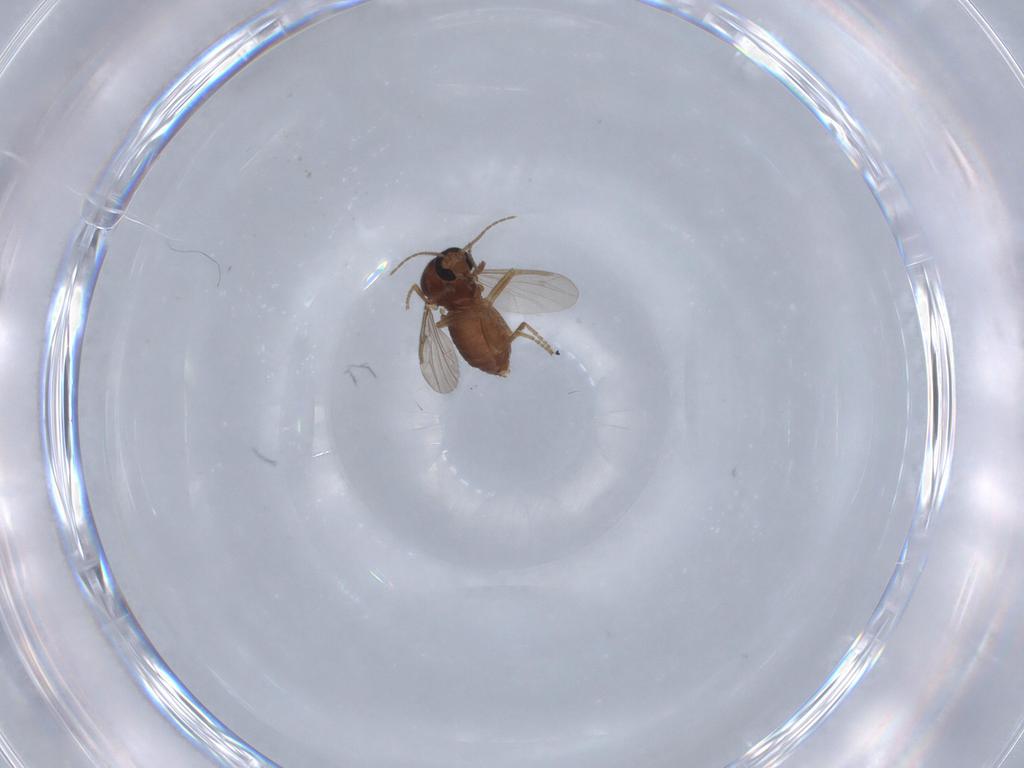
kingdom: Animalia
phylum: Arthropoda
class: Insecta
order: Diptera
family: Ceratopogonidae
